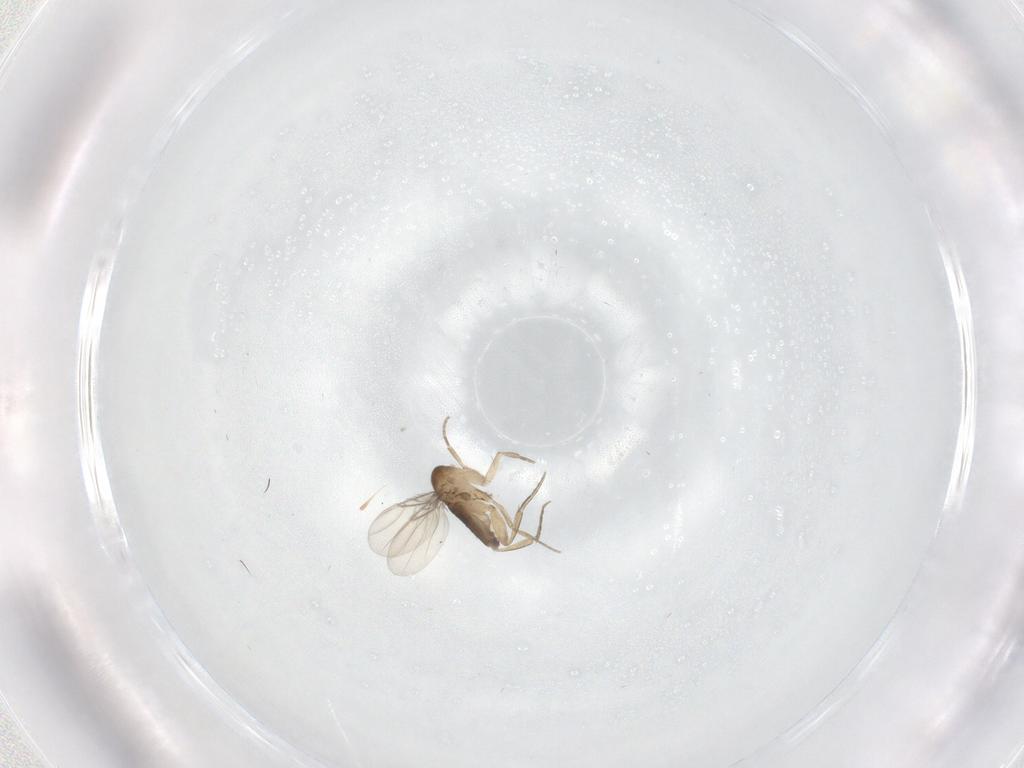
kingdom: Animalia
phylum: Arthropoda
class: Insecta
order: Diptera
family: Phoridae
